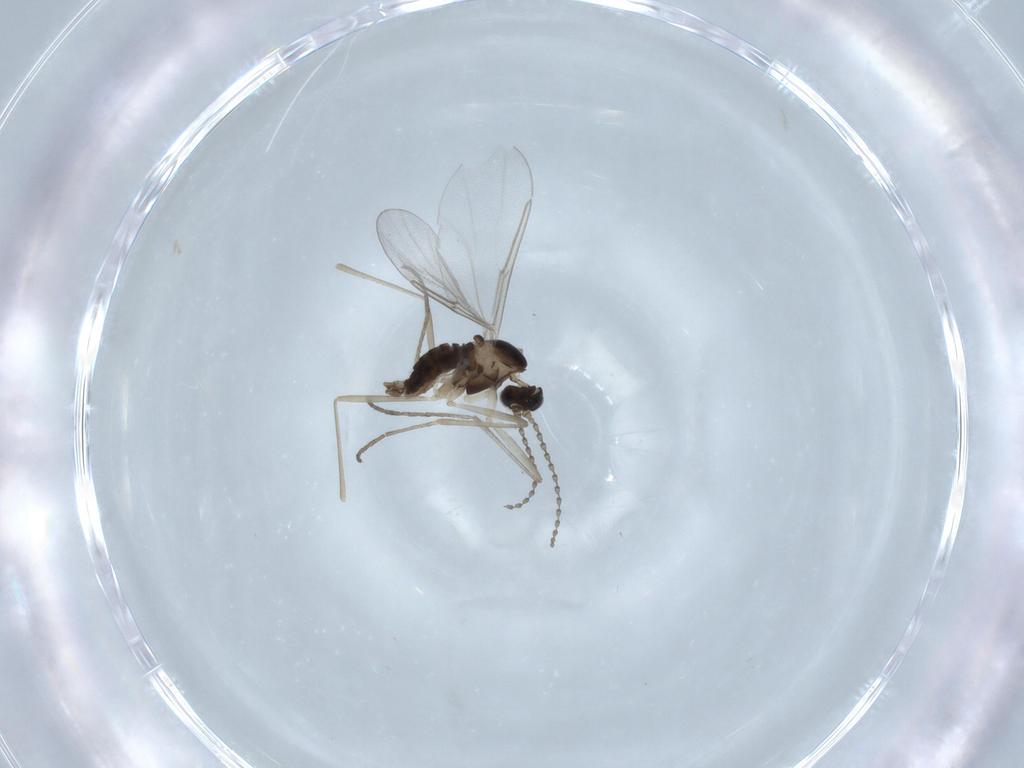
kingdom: Animalia
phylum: Arthropoda
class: Insecta
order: Diptera
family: Cecidomyiidae
